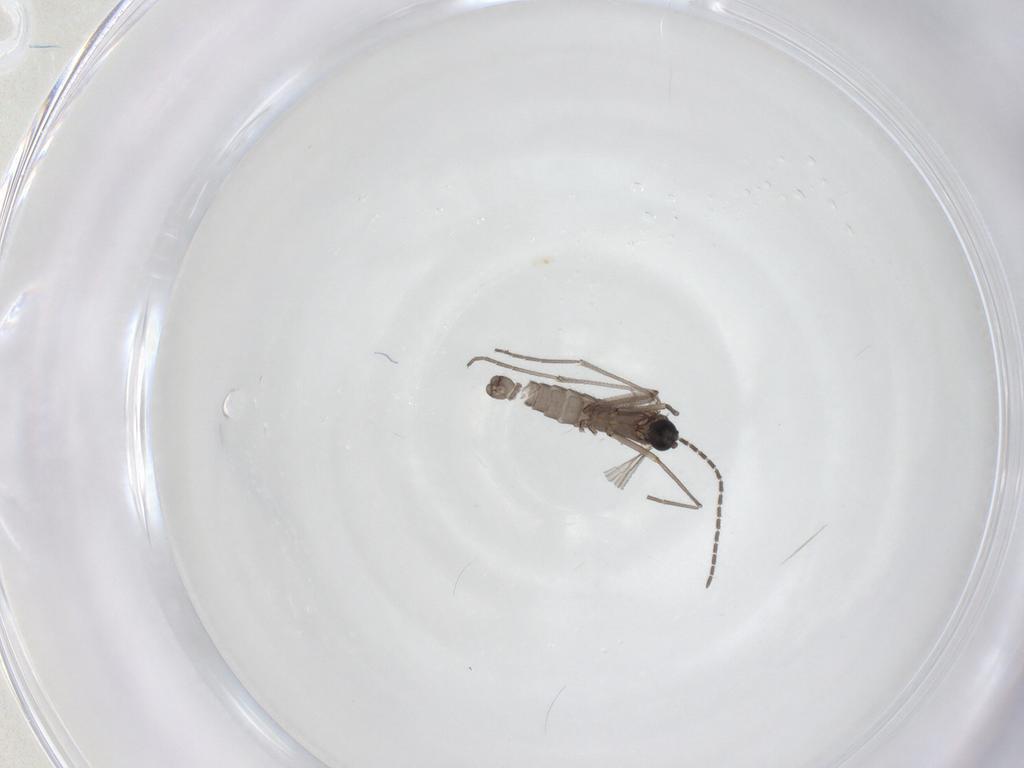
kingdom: Animalia
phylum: Arthropoda
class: Insecta
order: Diptera
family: Sciaridae
